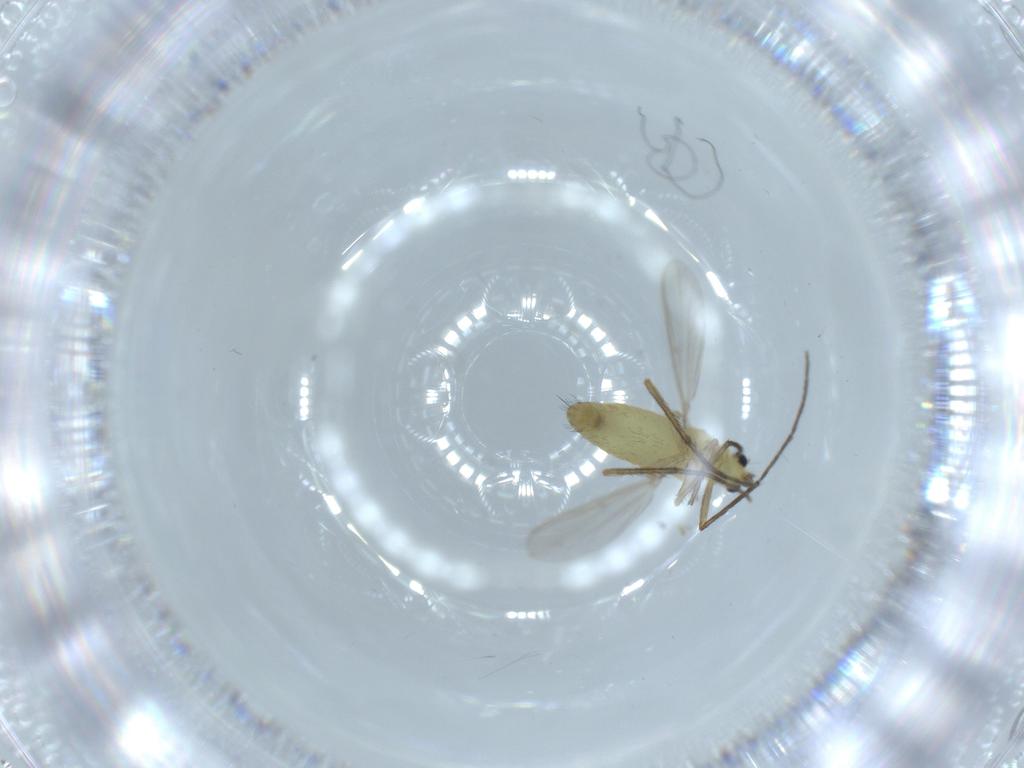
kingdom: Animalia
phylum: Arthropoda
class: Insecta
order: Diptera
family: Chironomidae
